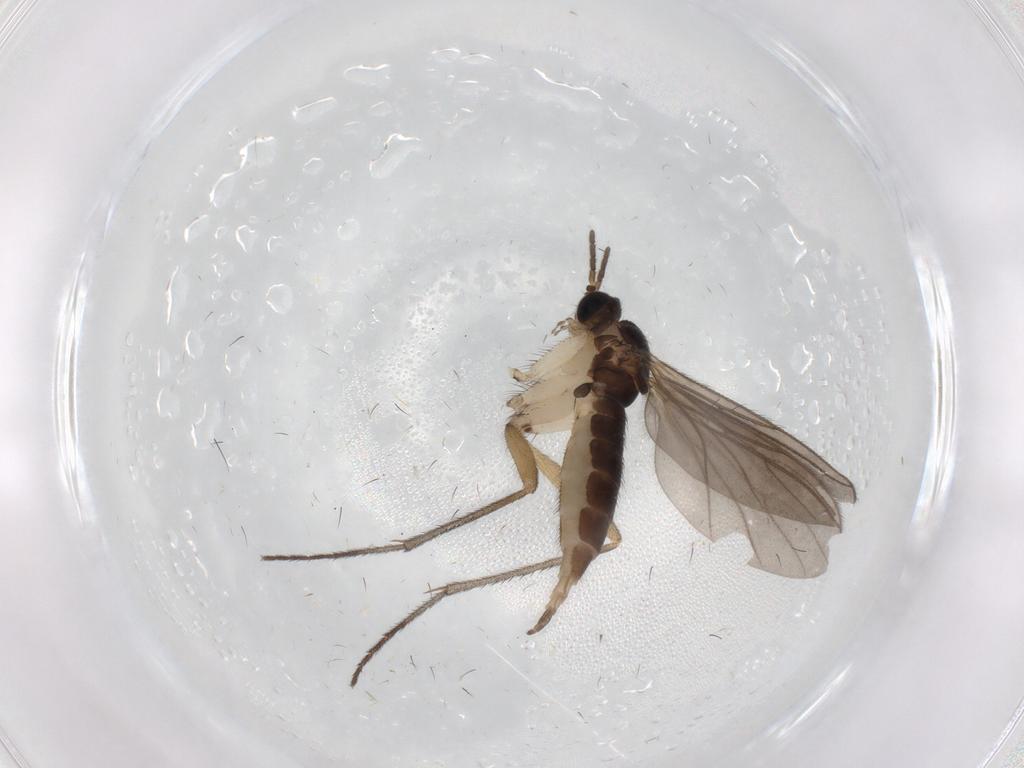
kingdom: Animalia
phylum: Arthropoda
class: Insecta
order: Diptera
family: Sciaridae
